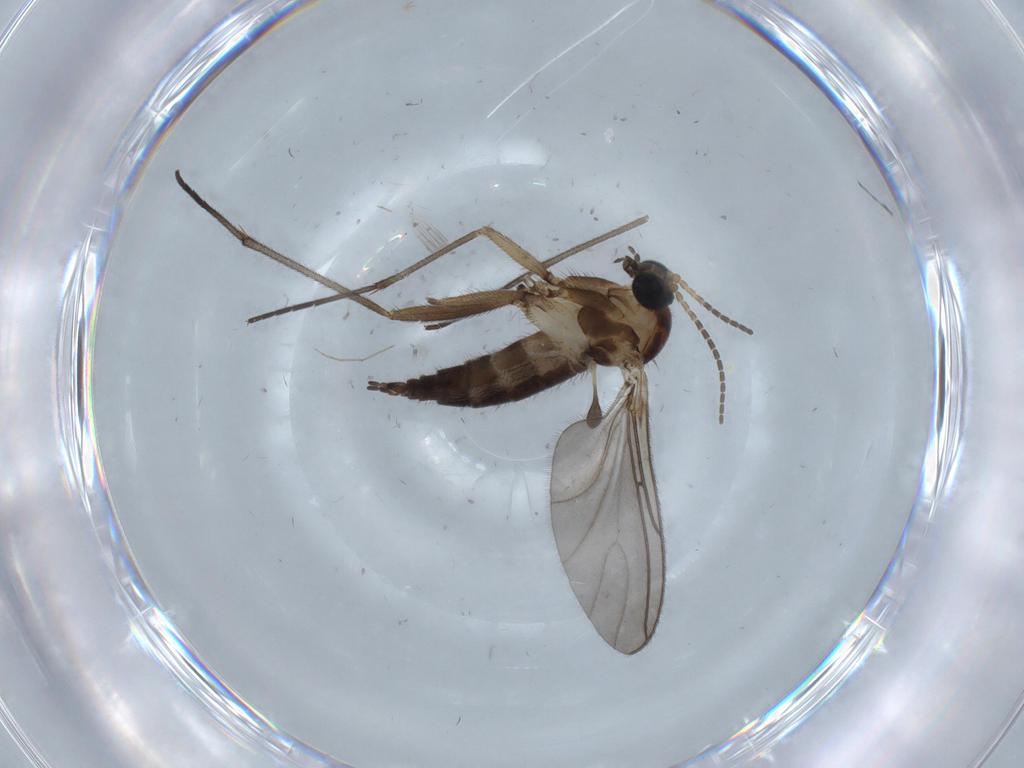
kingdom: Animalia
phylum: Arthropoda
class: Insecta
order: Diptera
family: Sciaridae
